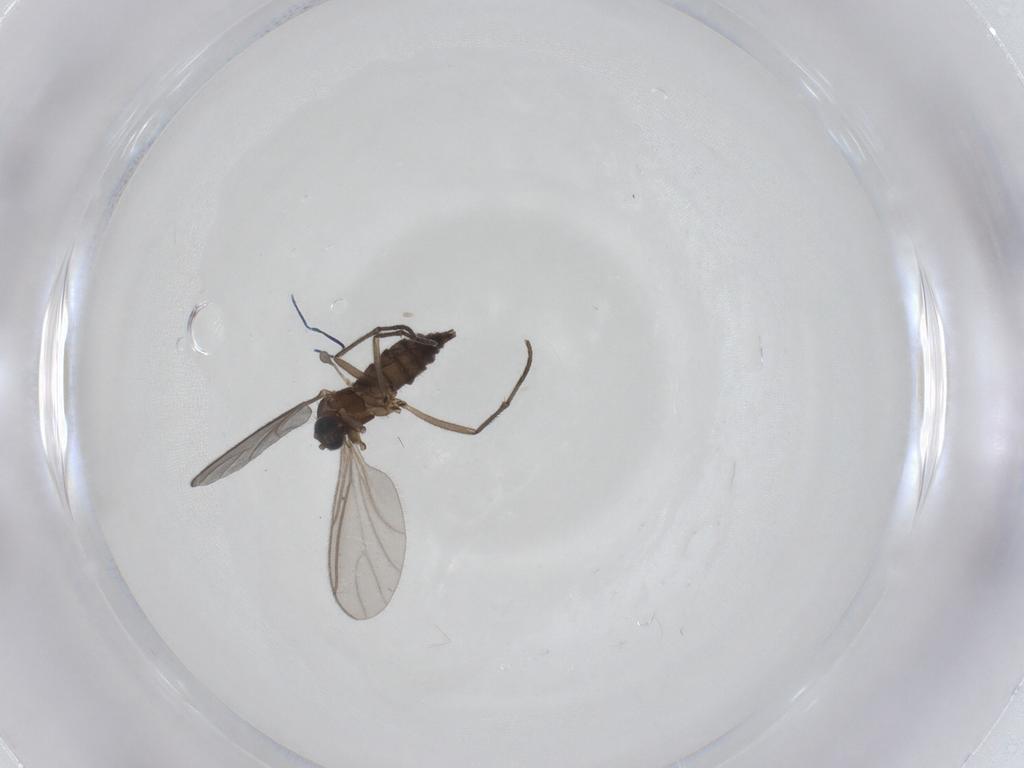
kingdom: Animalia
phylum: Arthropoda
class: Insecta
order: Diptera
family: Sciaridae
